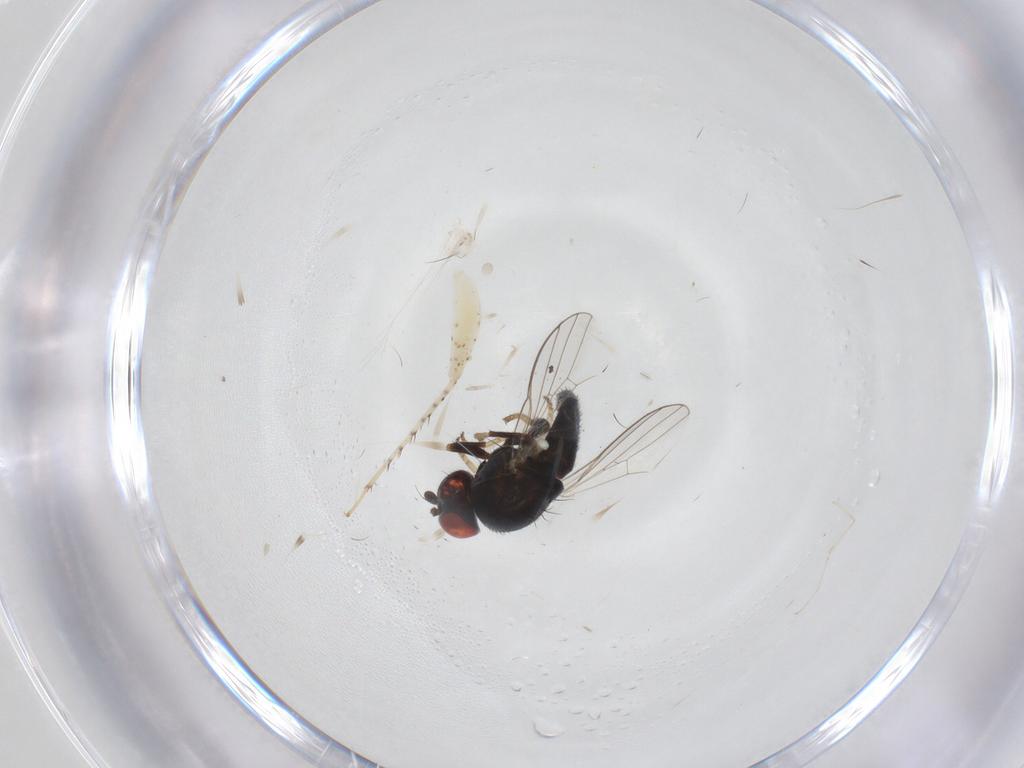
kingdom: Animalia
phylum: Arthropoda
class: Insecta
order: Diptera
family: Chamaemyiidae
